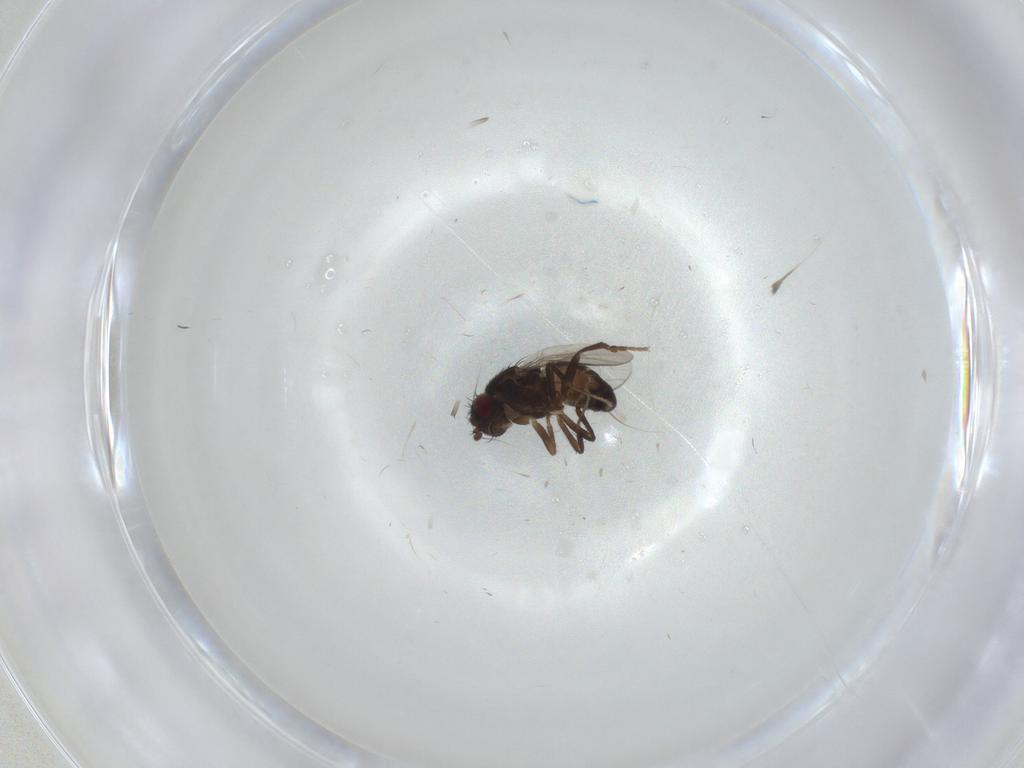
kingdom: Animalia
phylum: Arthropoda
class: Insecta
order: Diptera
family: Sphaeroceridae
